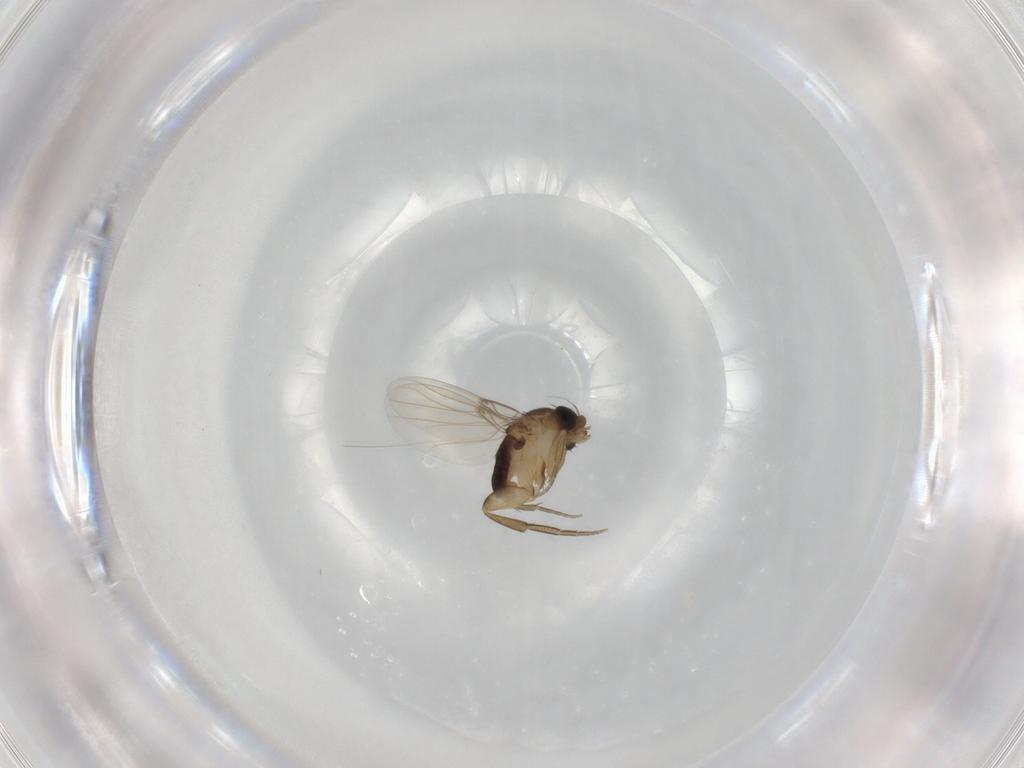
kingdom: Animalia
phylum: Arthropoda
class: Insecta
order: Diptera
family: Phoridae
